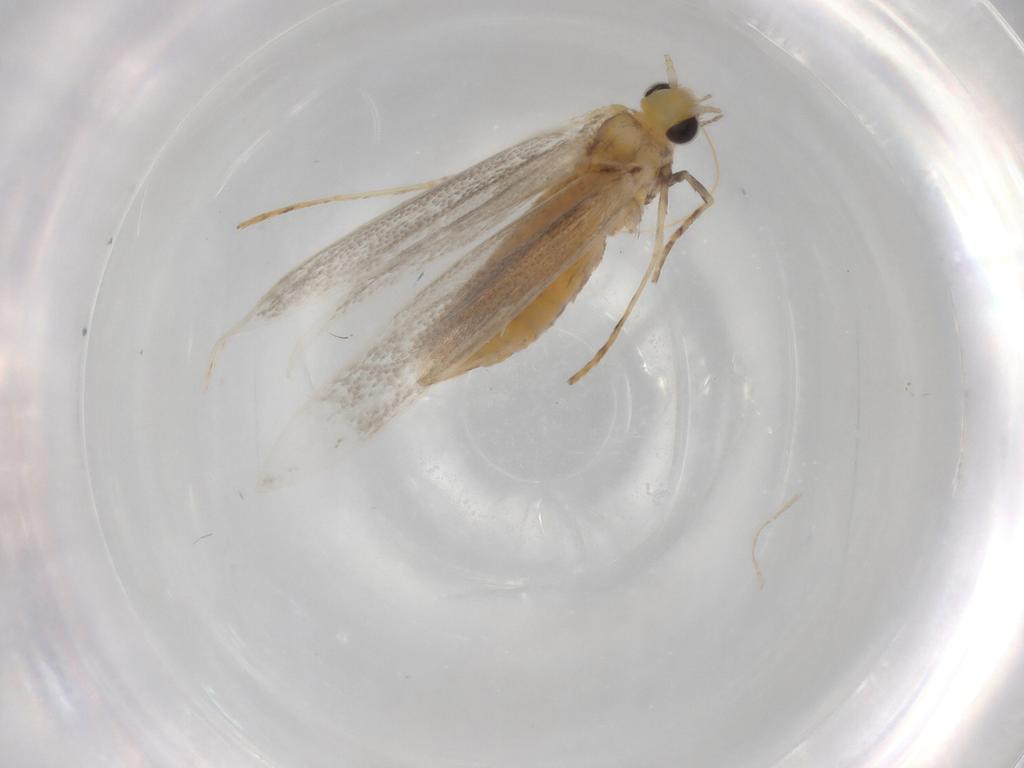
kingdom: Animalia
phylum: Arthropoda
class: Insecta
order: Lepidoptera
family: Gracillariidae
